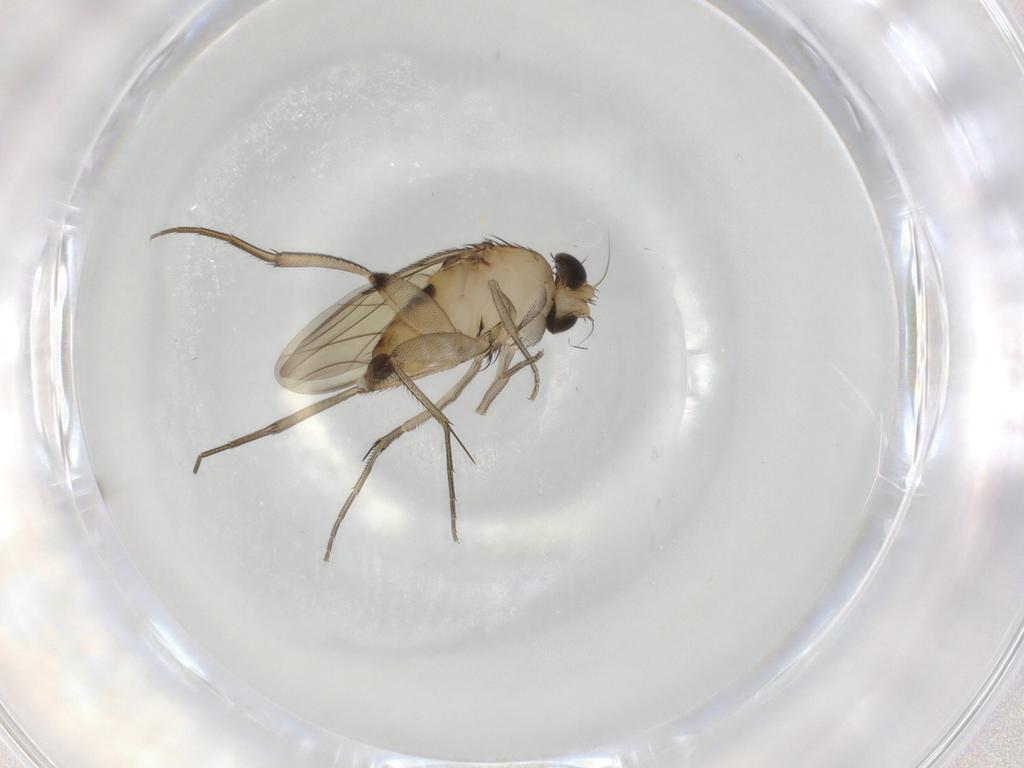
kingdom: Animalia
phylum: Arthropoda
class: Insecta
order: Diptera
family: Phoridae
